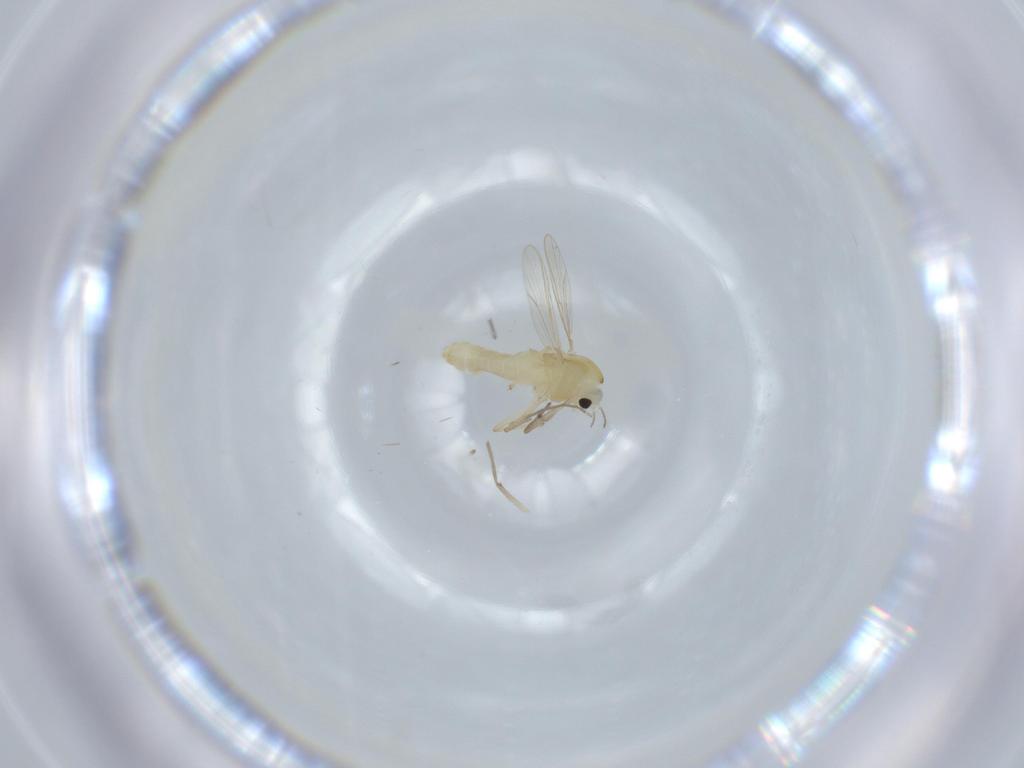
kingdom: Animalia
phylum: Arthropoda
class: Insecta
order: Diptera
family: Chironomidae
